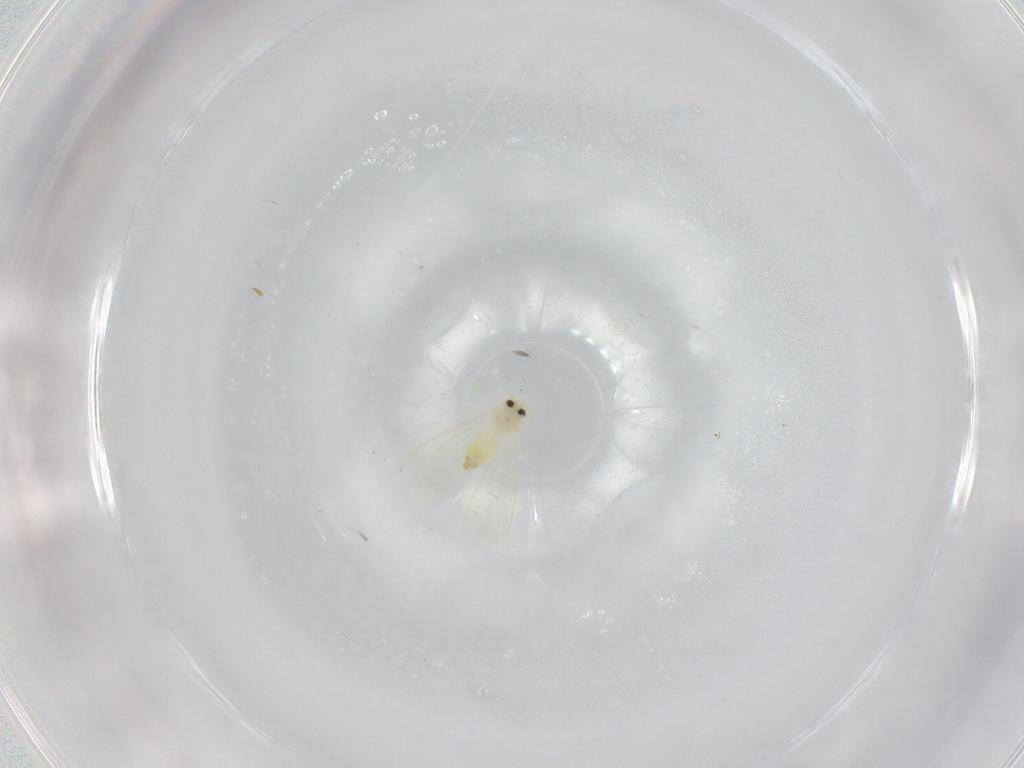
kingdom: Animalia
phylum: Arthropoda
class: Insecta
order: Hemiptera
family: Coccoidea_incertae_sedis
